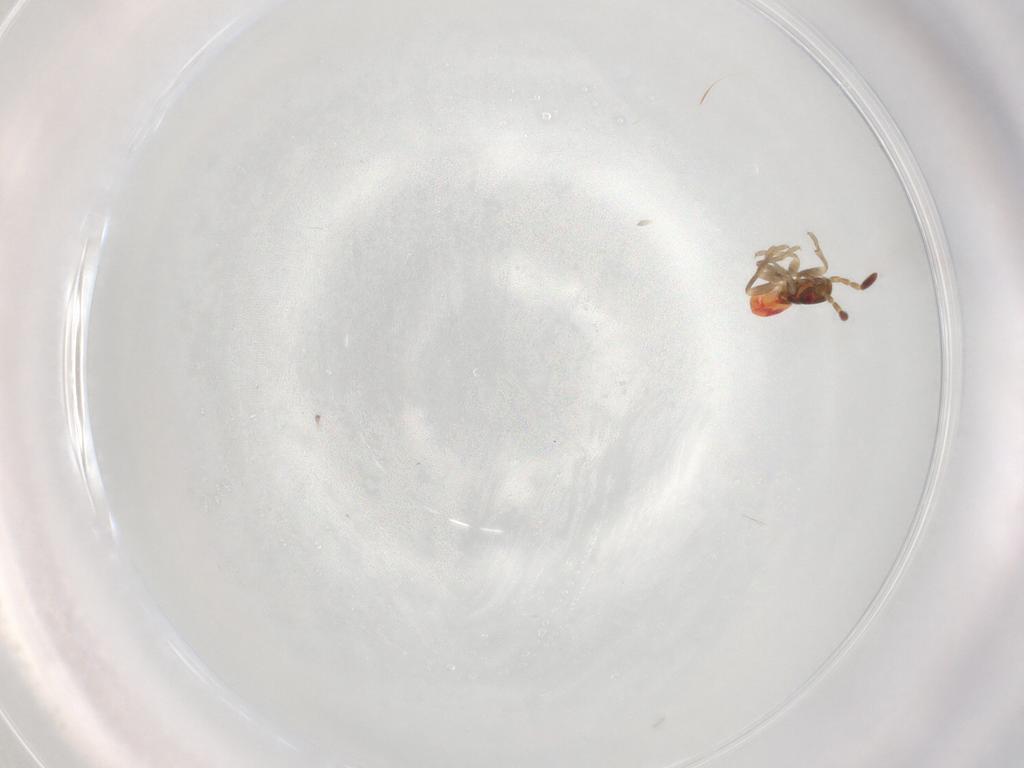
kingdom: Animalia
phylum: Arthropoda
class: Insecta
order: Hemiptera
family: Rhyparochromidae
